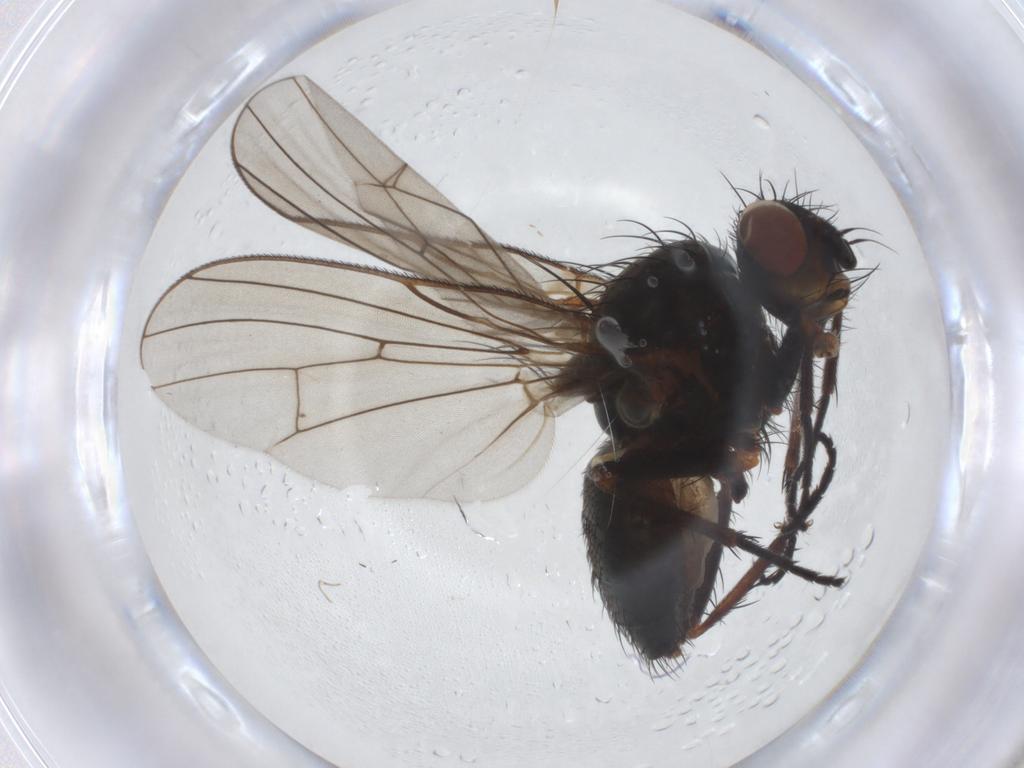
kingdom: Animalia
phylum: Arthropoda
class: Insecta
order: Diptera
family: Anthomyiidae
